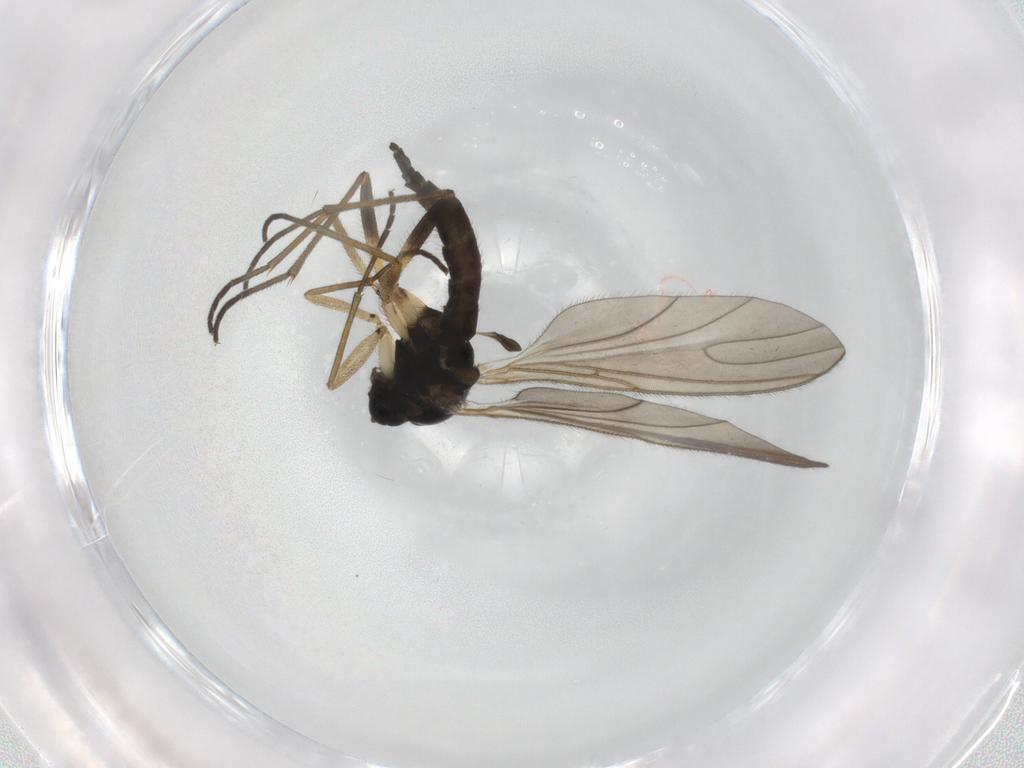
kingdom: Animalia
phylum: Arthropoda
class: Insecta
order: Diptera
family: Sciaridae
